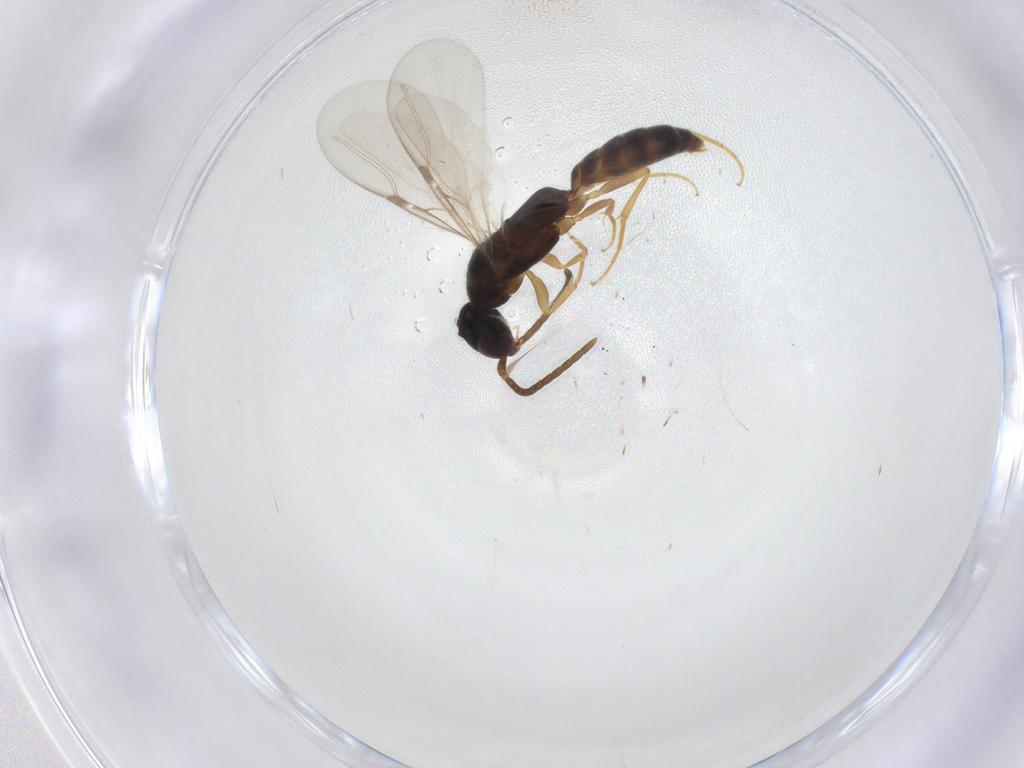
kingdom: Animalia
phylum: Arthropoda
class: Insecta
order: Hymenoptera
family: Bethylidae
